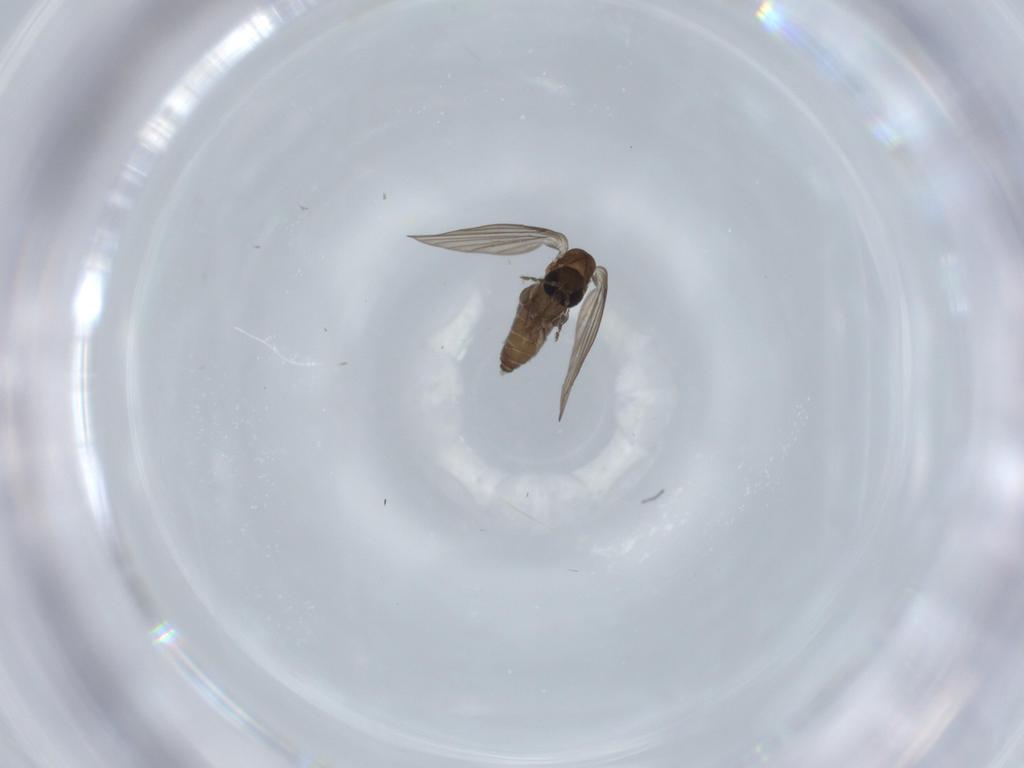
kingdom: Animalia
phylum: Arthropoda
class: Insecta
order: Diptera
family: Psychodidae
